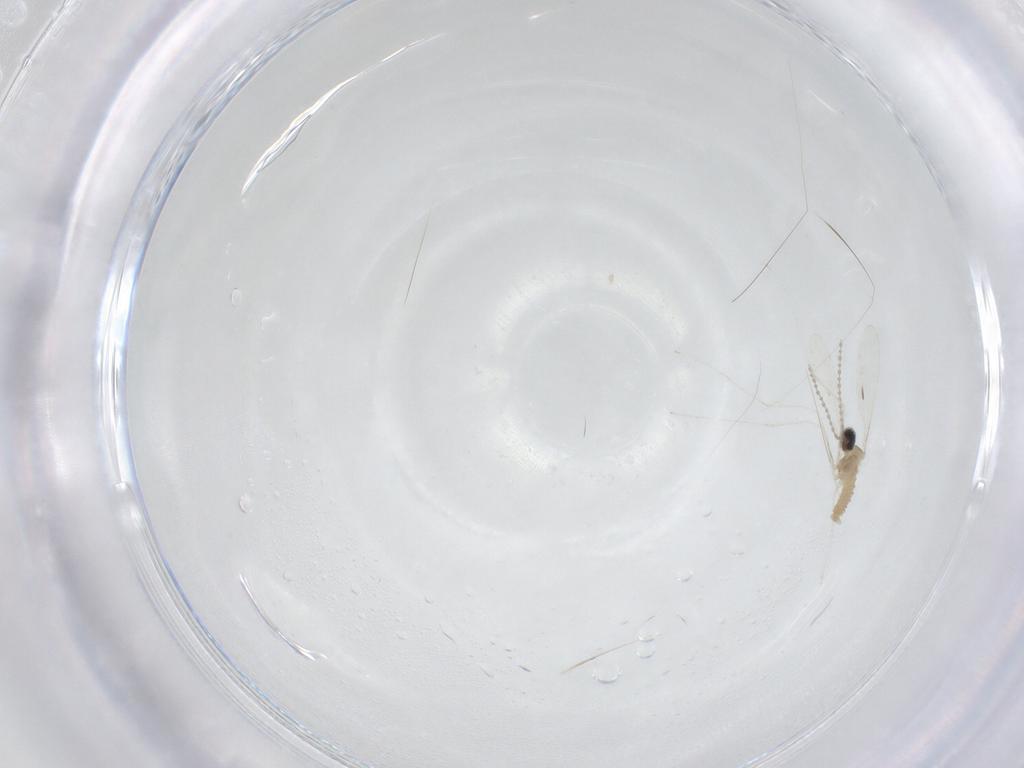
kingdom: Animalia
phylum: Arthropoda
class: Insecta
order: Diptera
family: Cecidomyiidae
